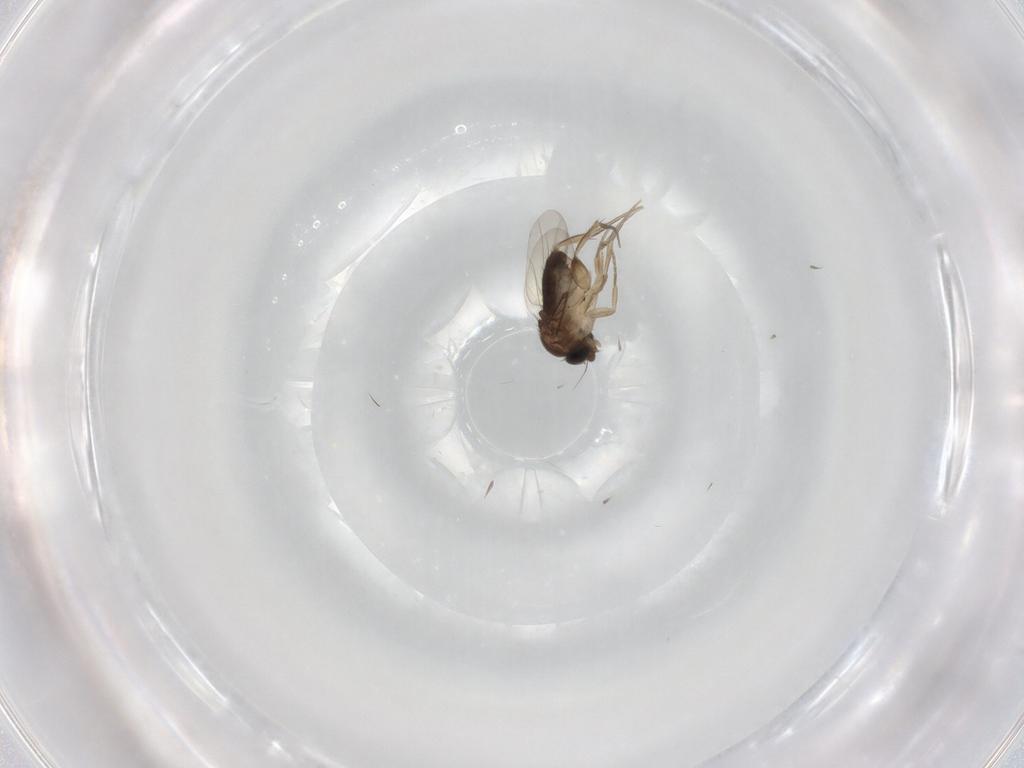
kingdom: Animalia
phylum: Arthropoda
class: Insecta
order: Diptera
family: Phoridae
